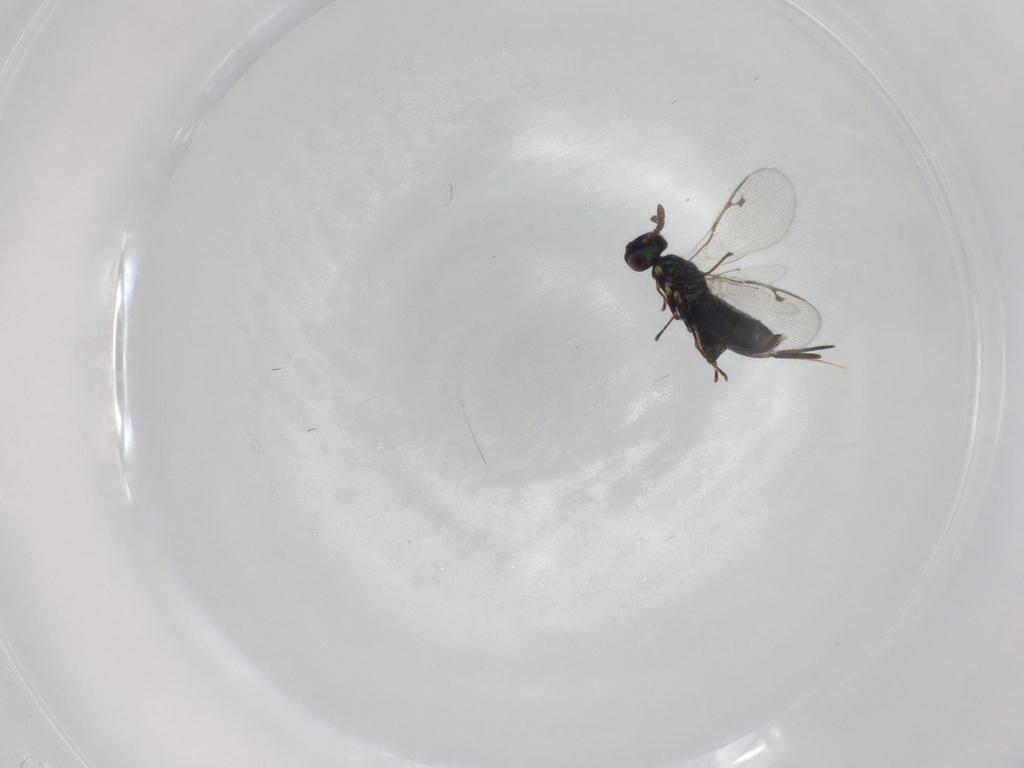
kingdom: Animalia
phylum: Arthropoda
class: Insecta
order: Hymenoptera
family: Pirenidae
